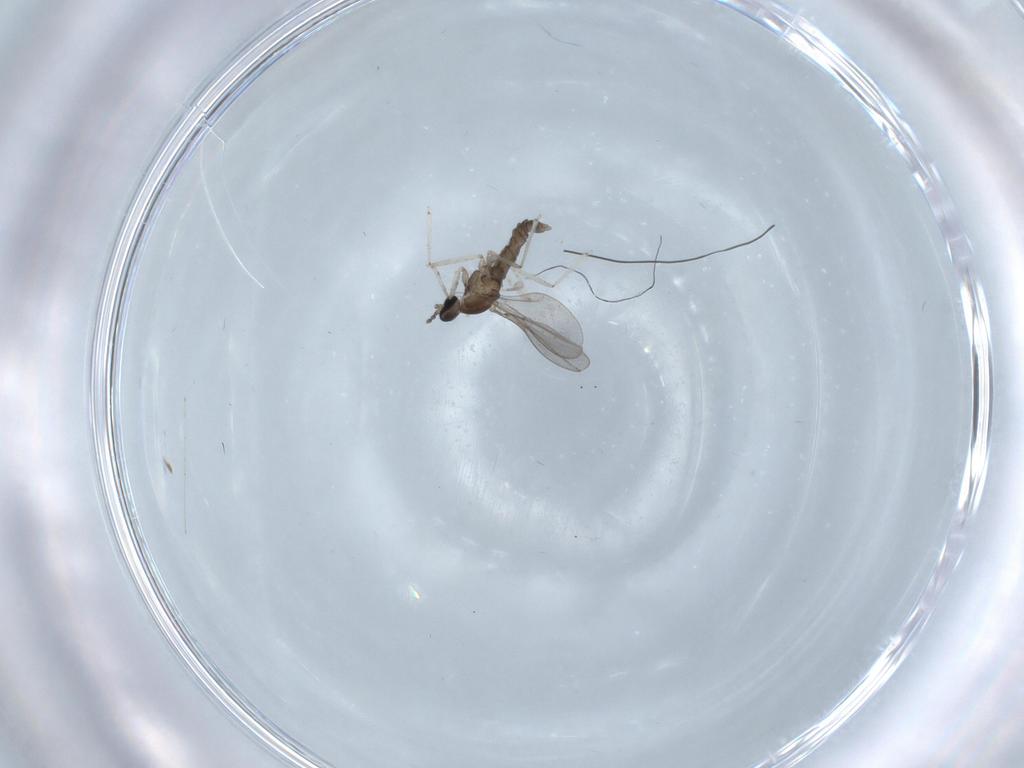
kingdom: Animalia
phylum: Arthropoda
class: Insecta
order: Diptera
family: Cecidomyiidae
